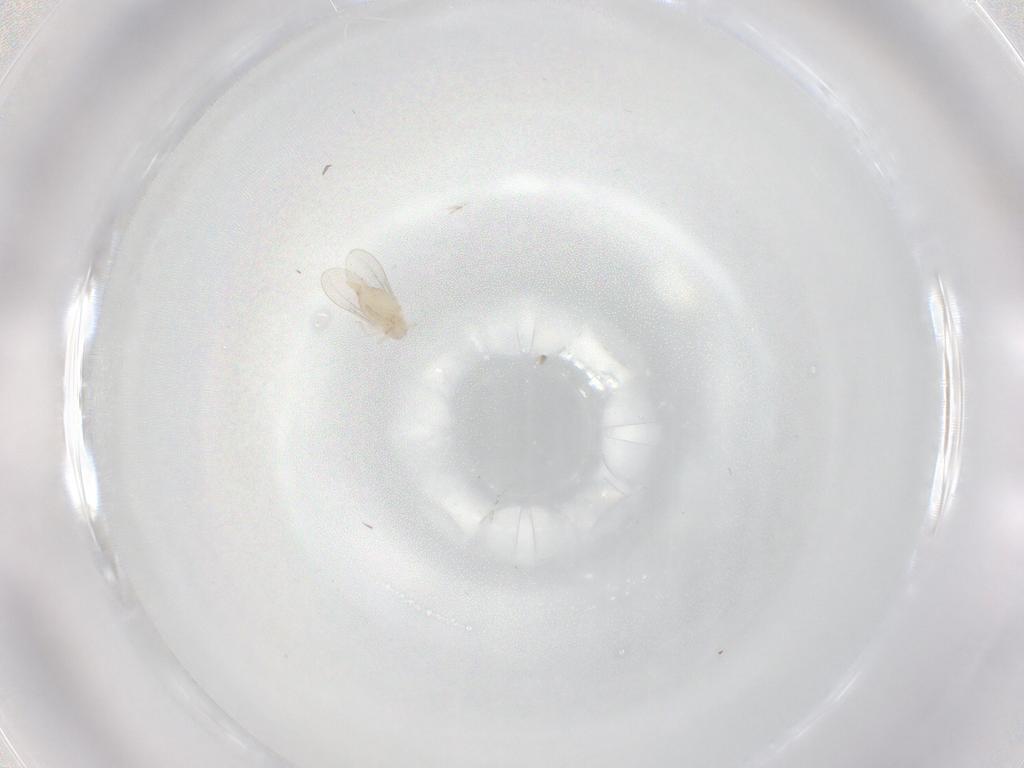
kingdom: Animalia
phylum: Arthropoda
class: Insecta
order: Diptera
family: Cecidomyiidae
